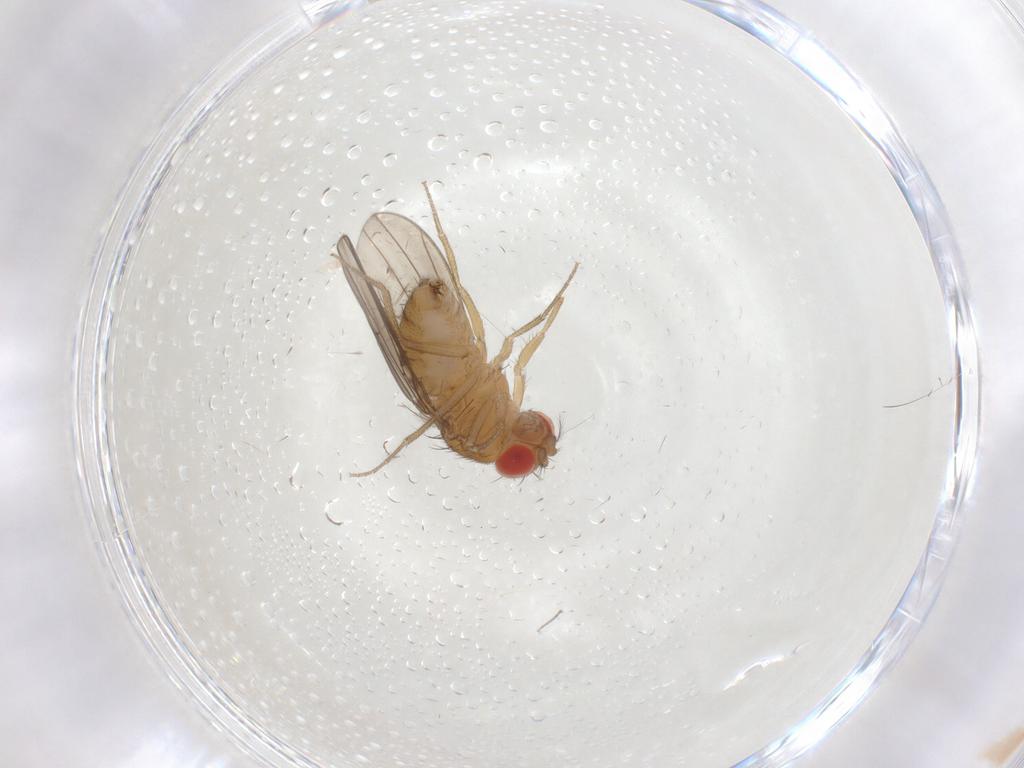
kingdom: Animalia
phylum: Arthropoda
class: Insecta
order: Diptera
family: Drosophilidae
